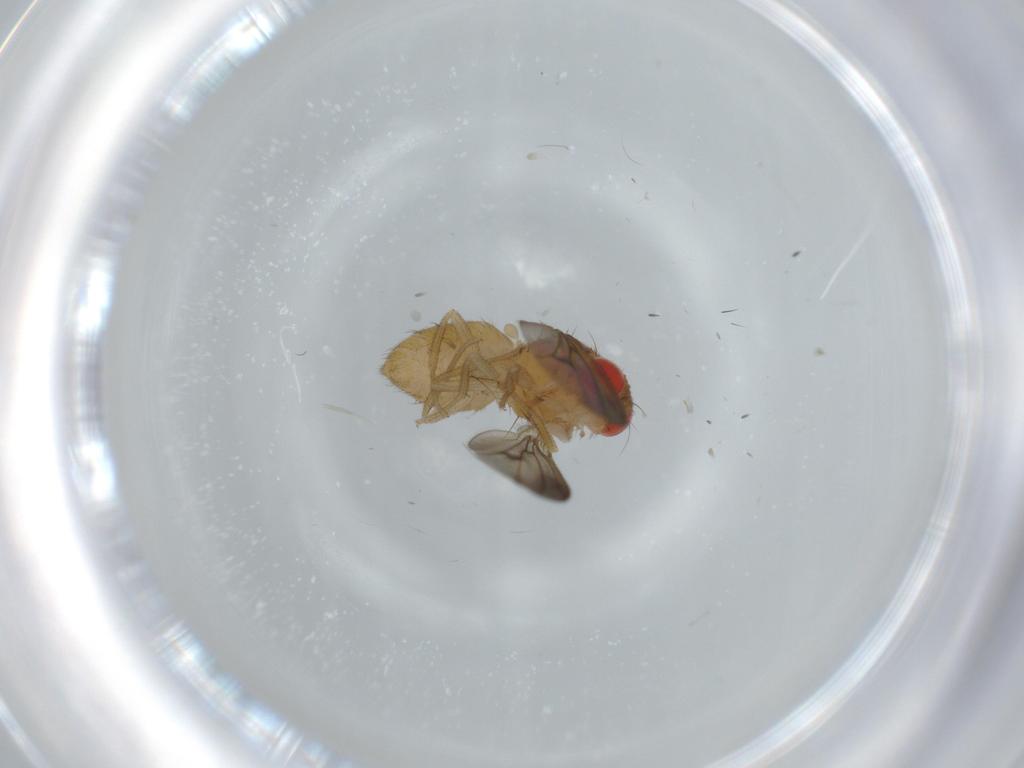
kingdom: Animalia
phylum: Arthropoda
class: Insecta
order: Diptera
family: Drosophilidae
